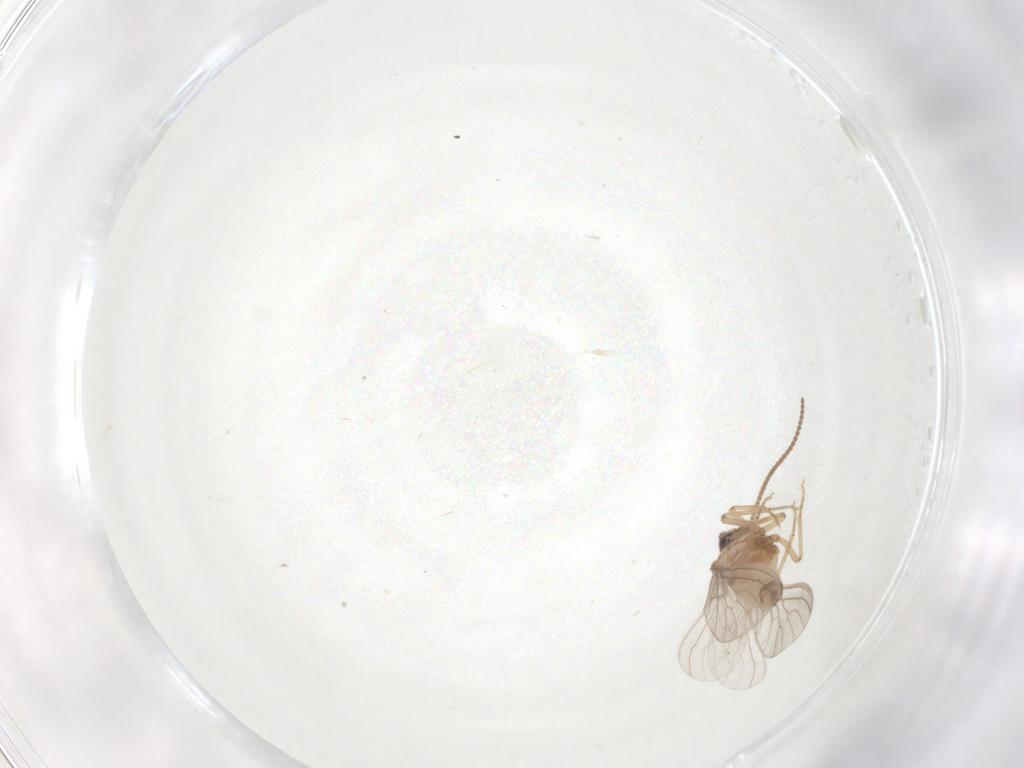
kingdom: Animalia
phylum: Arthropoda
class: Insecta
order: Neuroptera
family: Coniopterygidae
